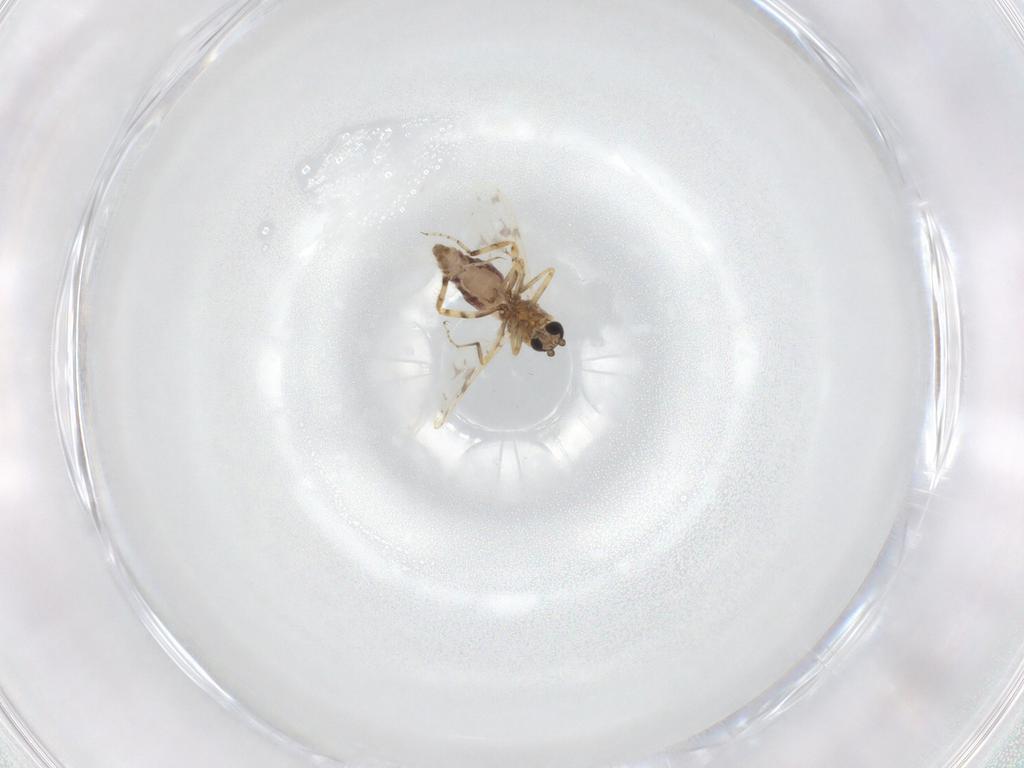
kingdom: Animalia
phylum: Arthropoda
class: Insecta
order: Diptera
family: Ceratopogonidae
